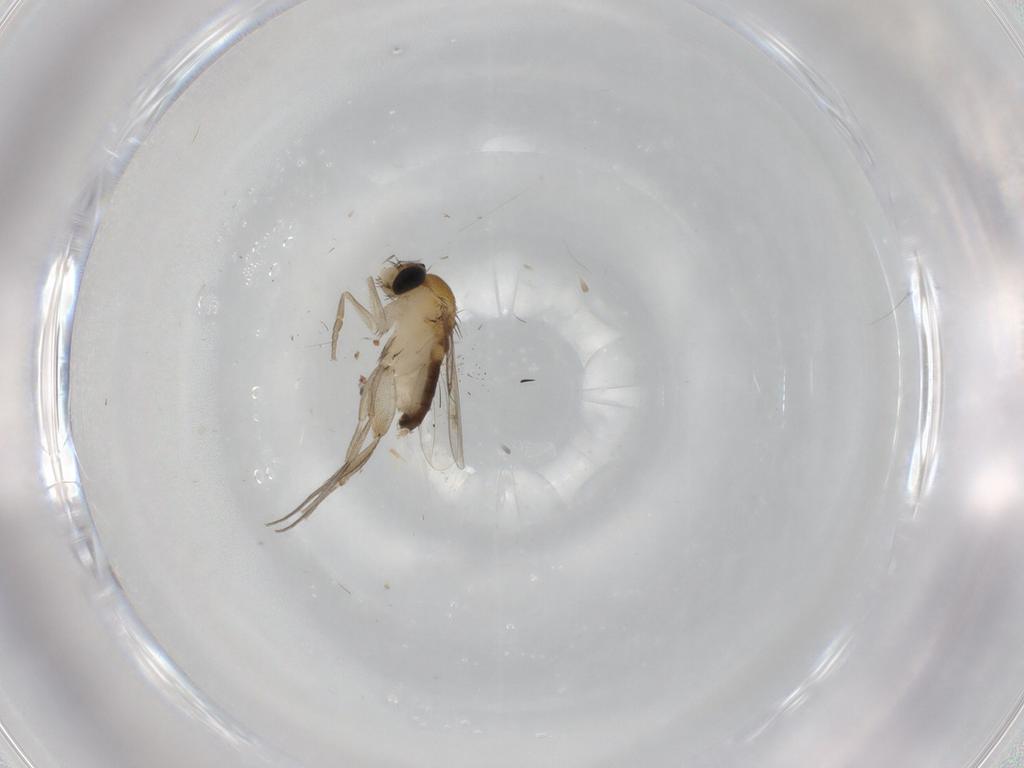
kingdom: Animalia
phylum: Arthropoda
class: Insecta
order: Diptera
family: Phoridae
